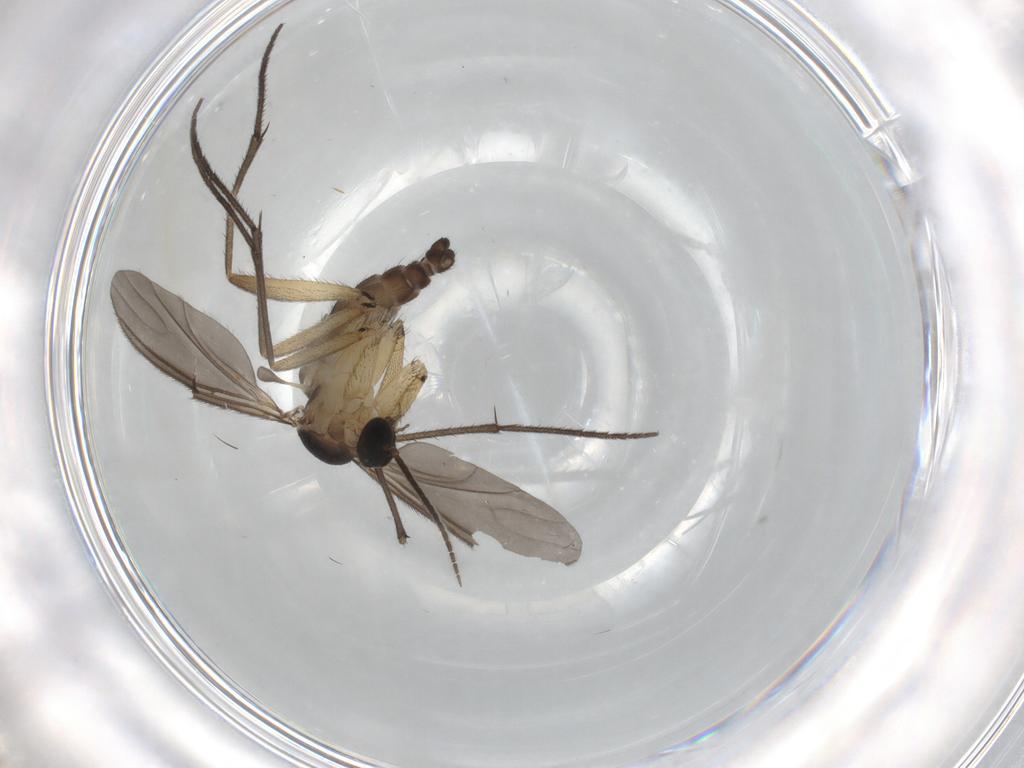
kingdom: Animalia
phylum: Arthropoda
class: Insecta
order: Diptera
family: Sciaridae
